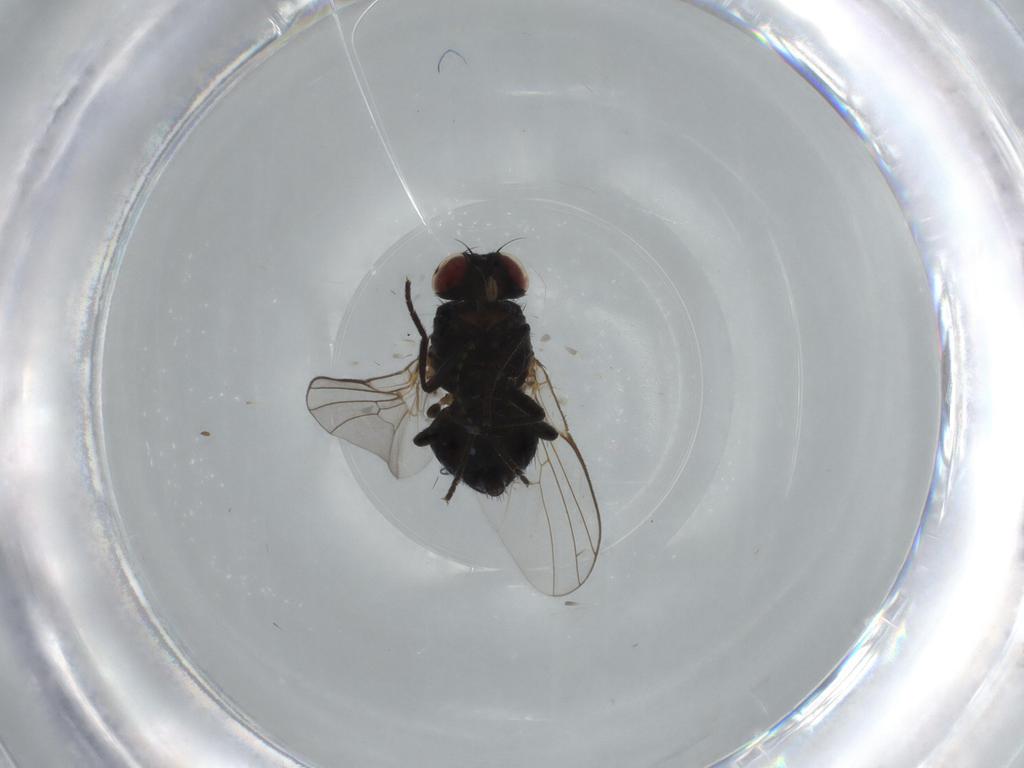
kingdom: Animalia
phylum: Arthropoda
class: Insecta
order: Diptera
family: Agromyzidae
